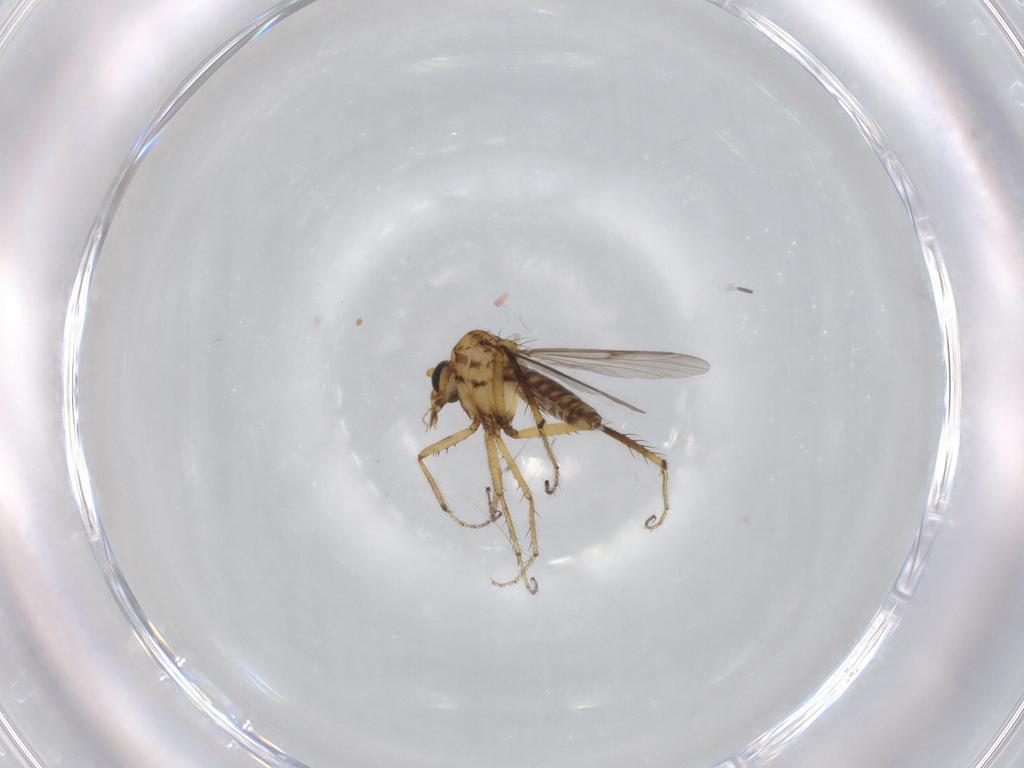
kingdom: Animalia
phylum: Arthropoda
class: Insecta
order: Diptera
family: Ceratopogonidae
